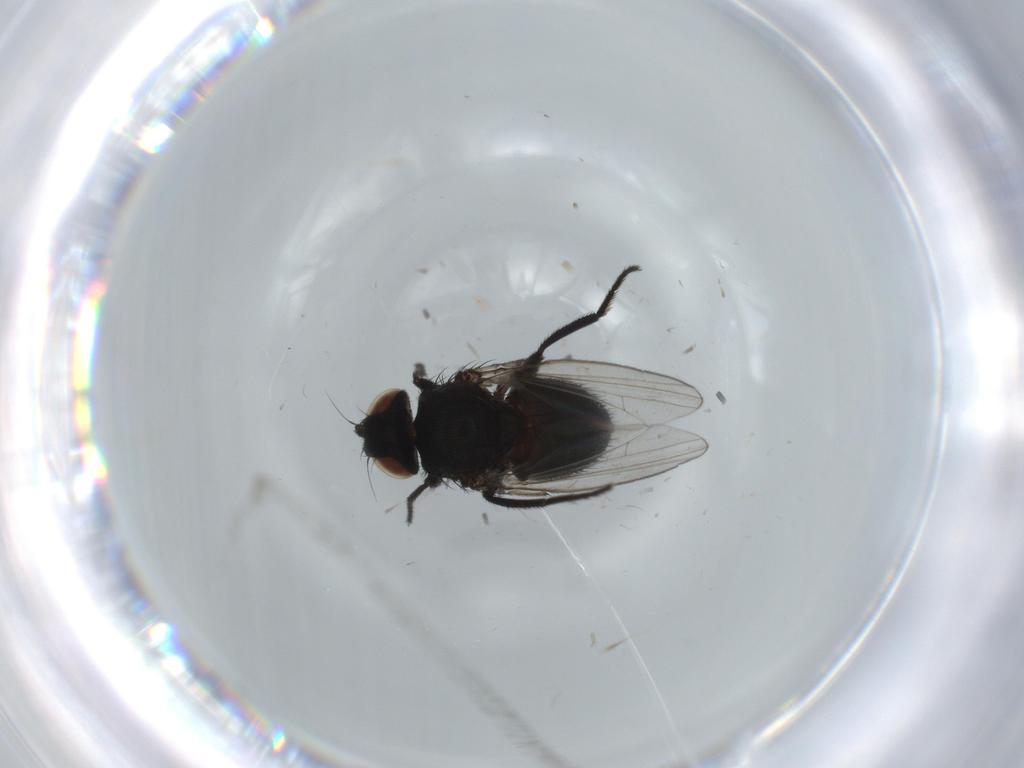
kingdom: Animalia
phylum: Arthropoda
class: Insecta
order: Diptera
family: Milichiidae
